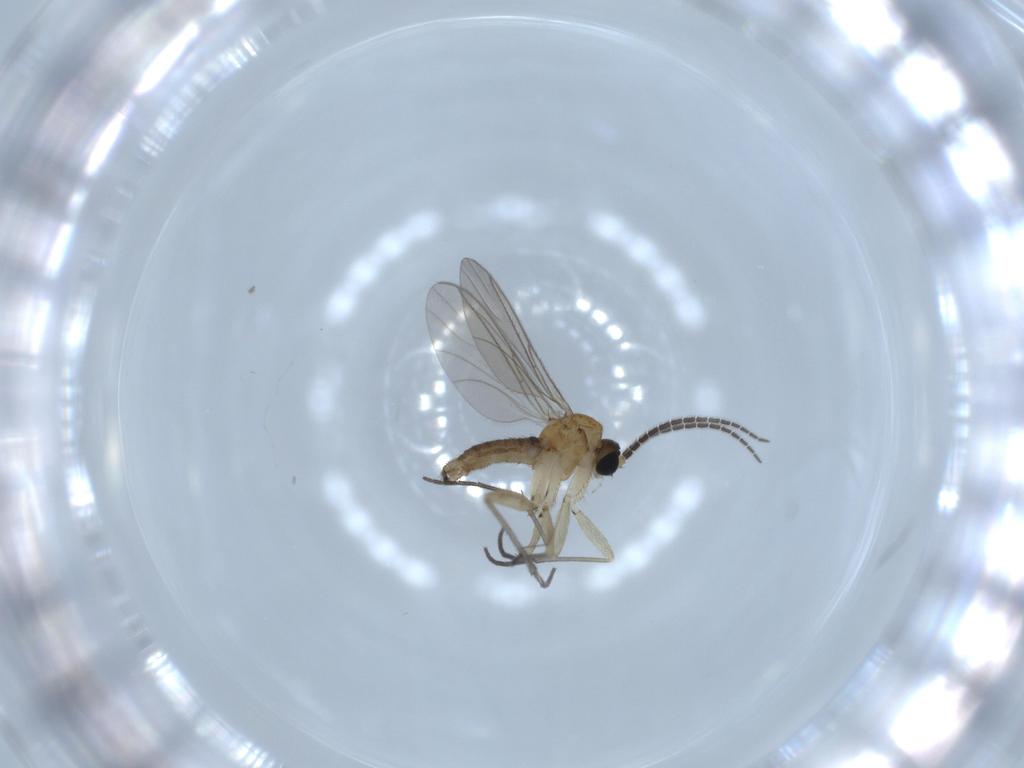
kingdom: Animalia
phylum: Arthropoda
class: Insecta
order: Diptera
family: Sciaridae
